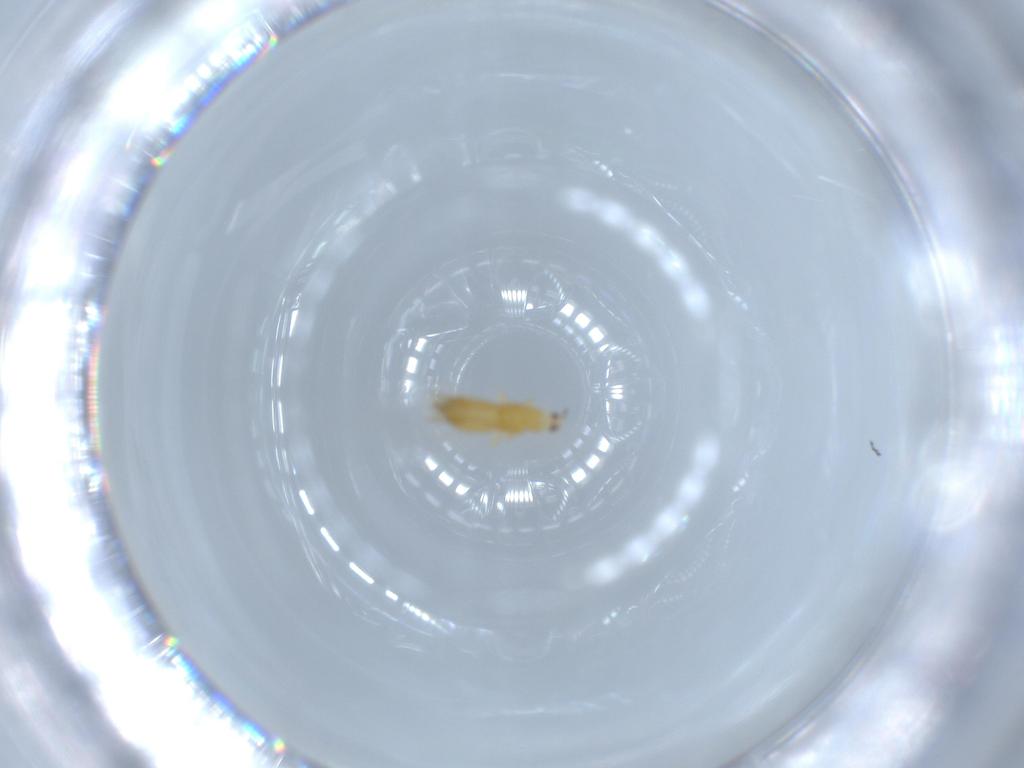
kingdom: Animalia
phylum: Arthropoda
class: Insecta
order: Thysanoptera
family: Thripidae
